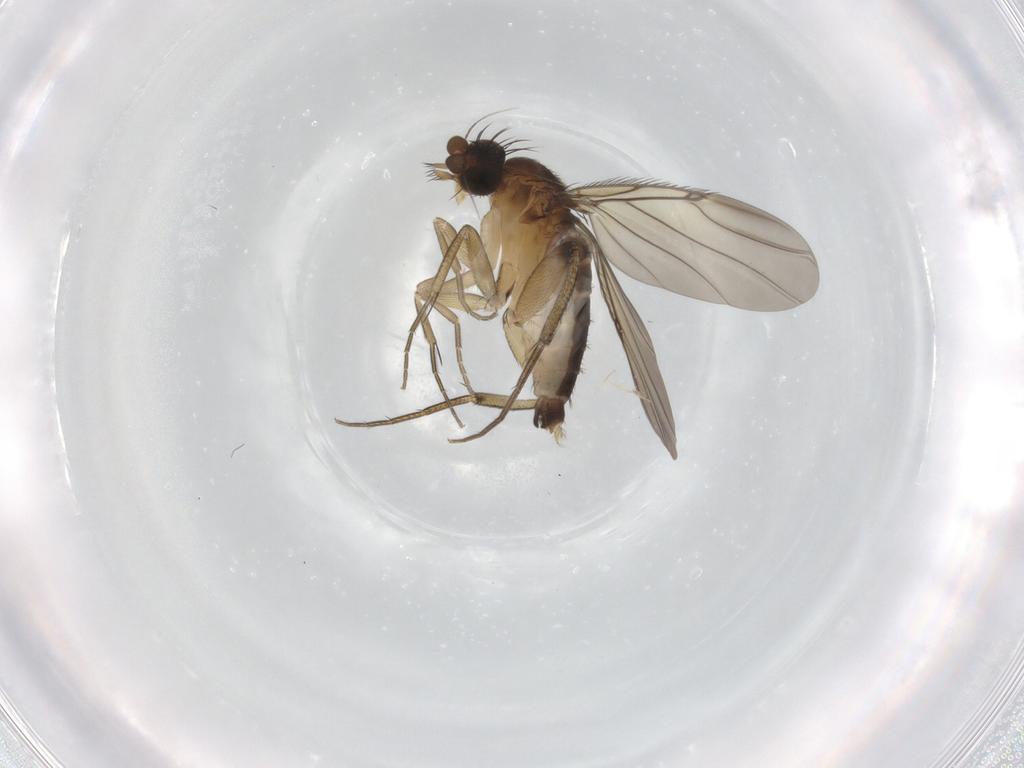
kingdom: Animalia
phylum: Arthropoda
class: Insecta
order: Diptera
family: Phoridae
